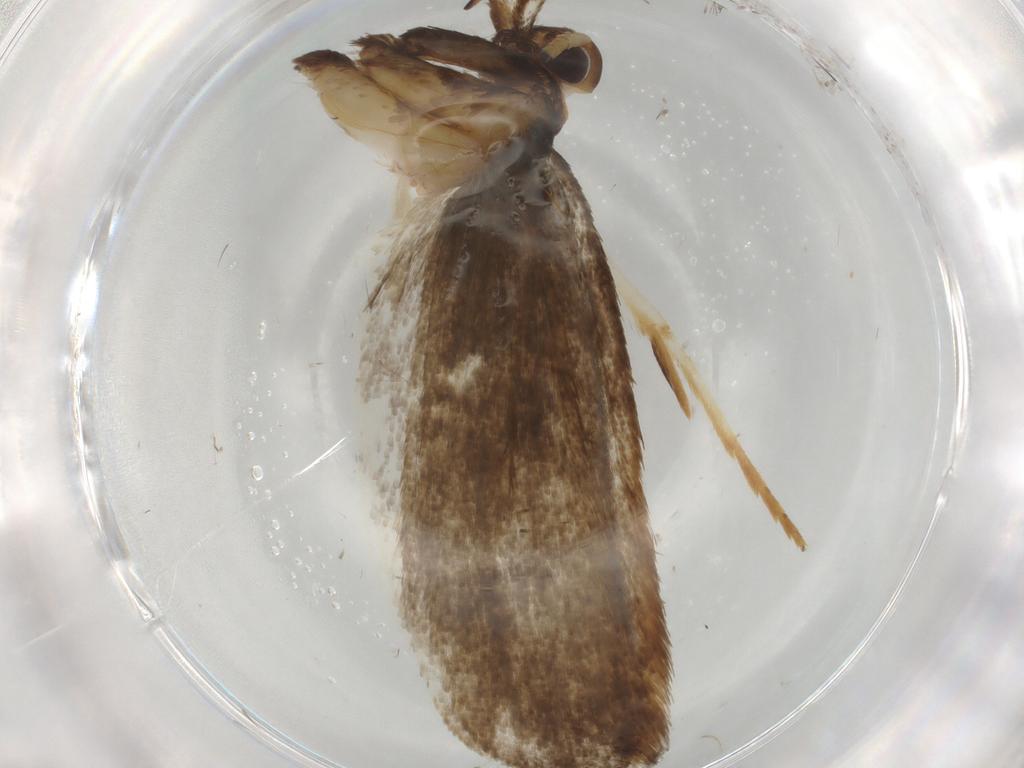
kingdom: Animalia
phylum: Arthropoda
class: Insecta
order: Lepidoptera
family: Lecithoceridae
